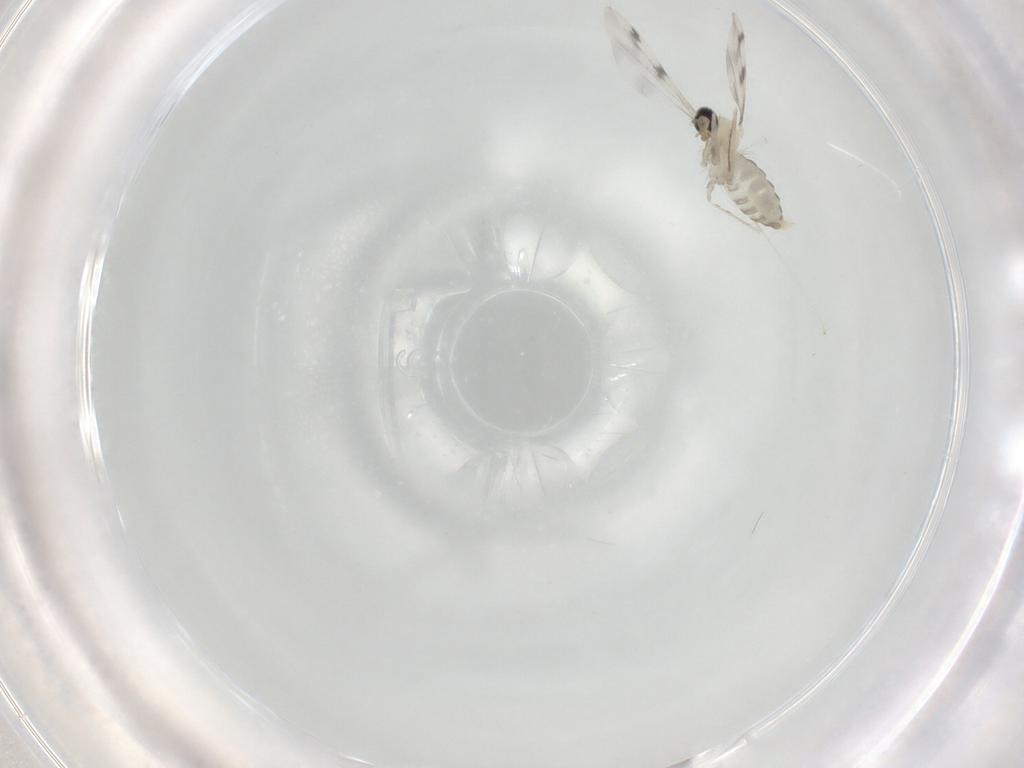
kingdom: Animalia
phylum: Arthropoda
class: Insecta
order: Diptera
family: Sciaridae
